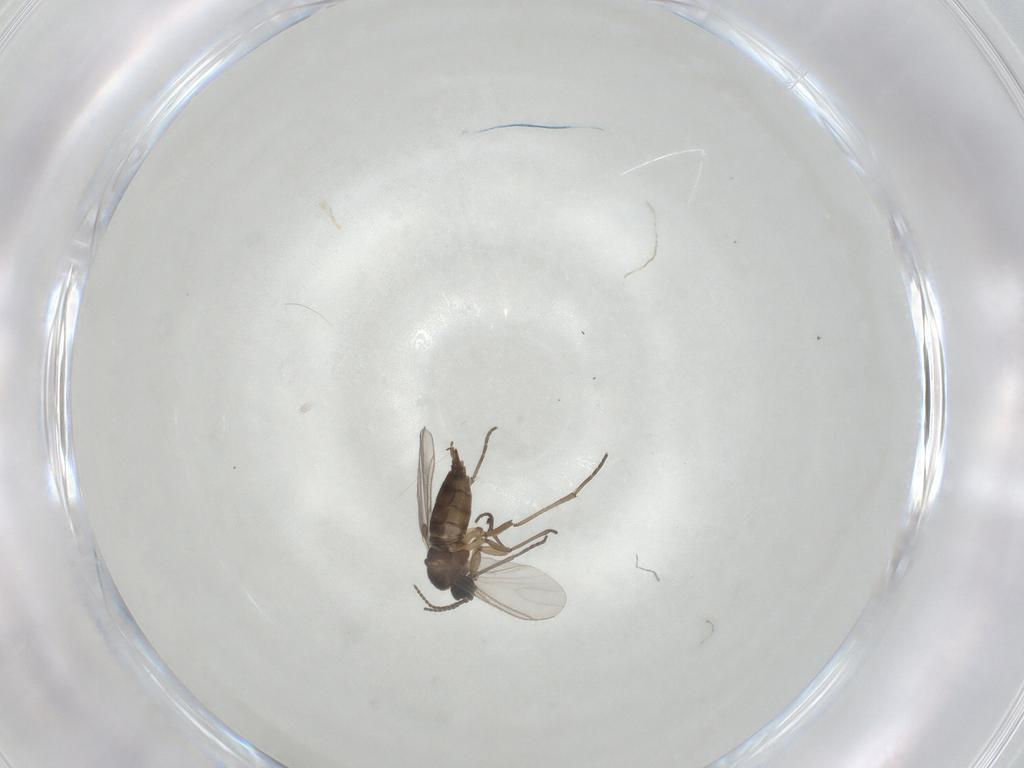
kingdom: Animalia
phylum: Arthropoda
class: Insecta
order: Diptera
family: Sciaridae
